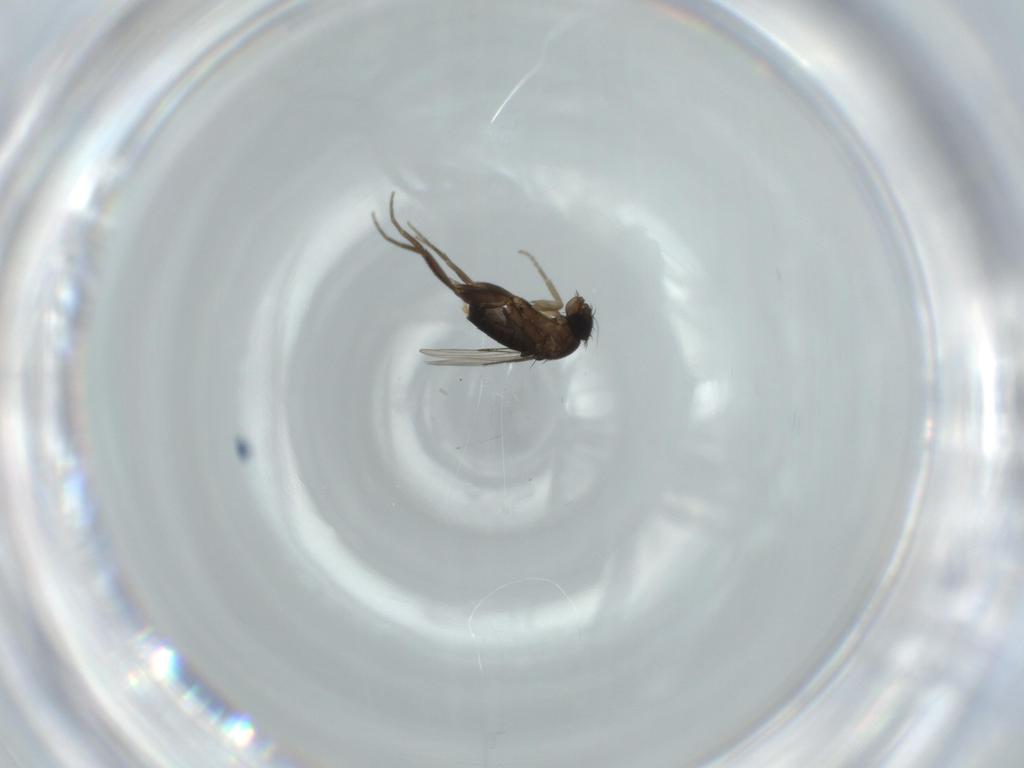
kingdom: Animalia
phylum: Arthropoda
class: Insecta
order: Diptera
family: Phoridae
